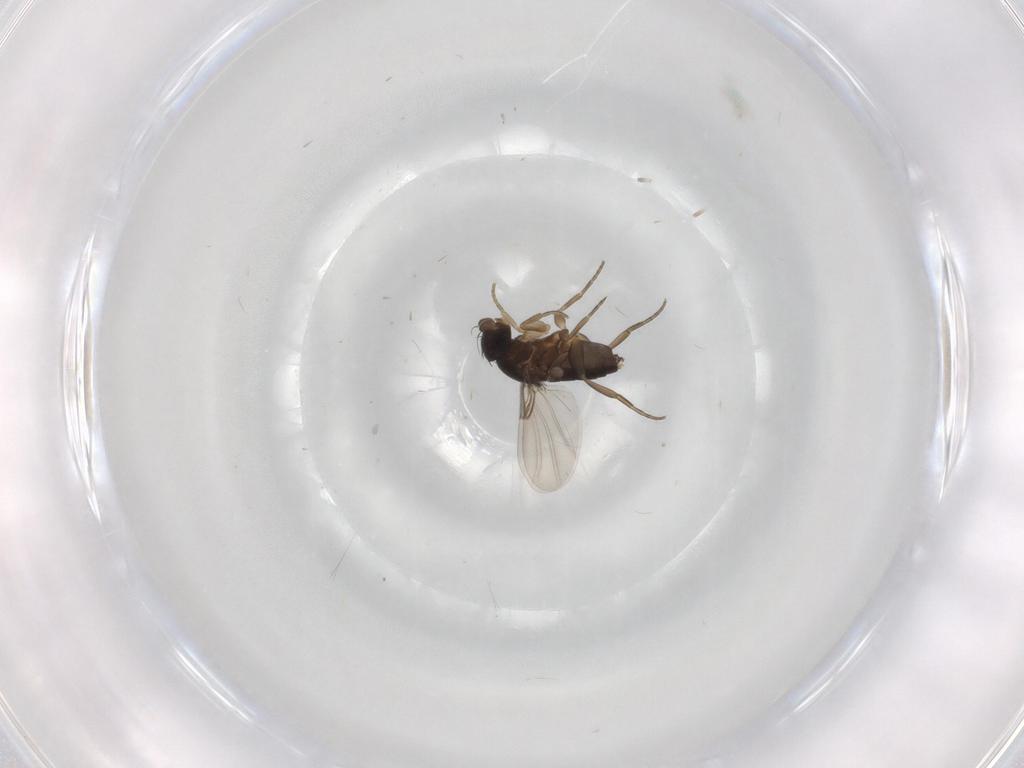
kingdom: Animalia
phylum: Arthropoda
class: Insecta
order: Diptera
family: Phoridae
